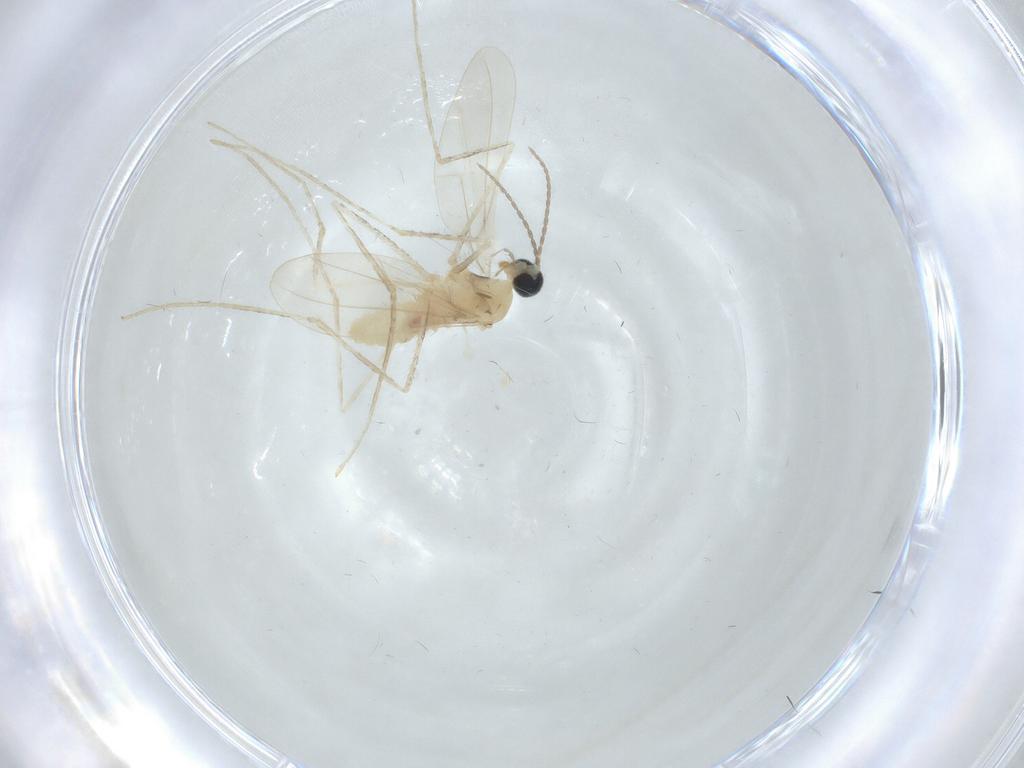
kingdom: Animalia
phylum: Arthropoda
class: Insecta
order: Diptera
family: Cecidomyiidae
